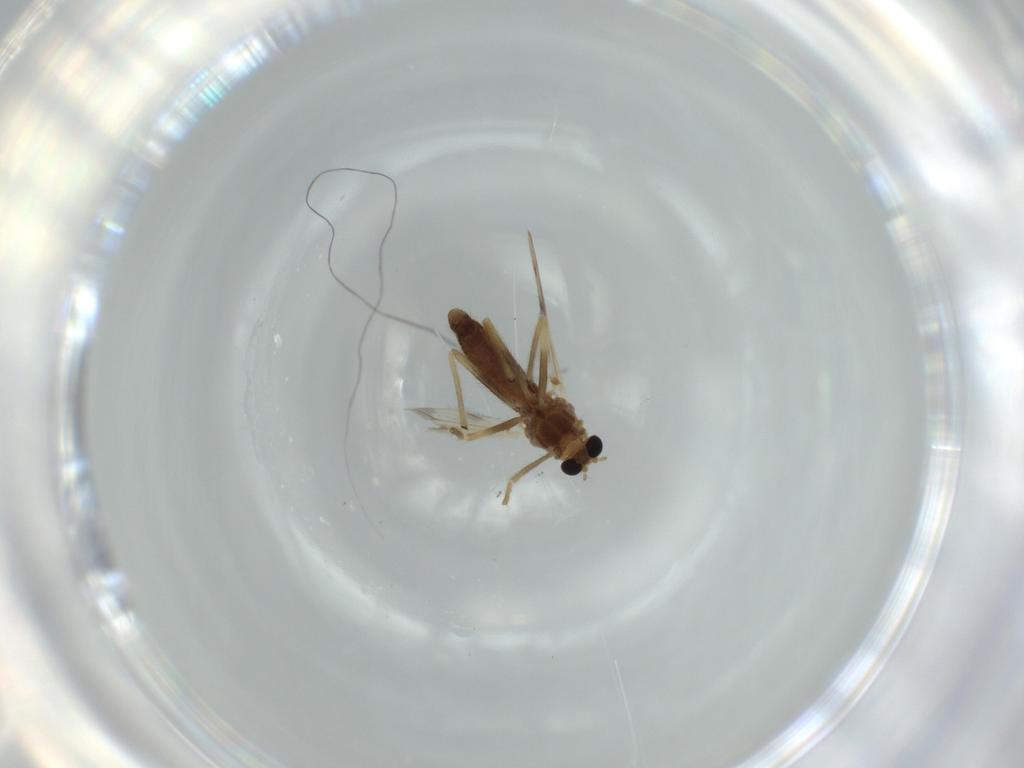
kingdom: Animalia
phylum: Arthropoda
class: Insecta
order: Diptera
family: Chironomidae
